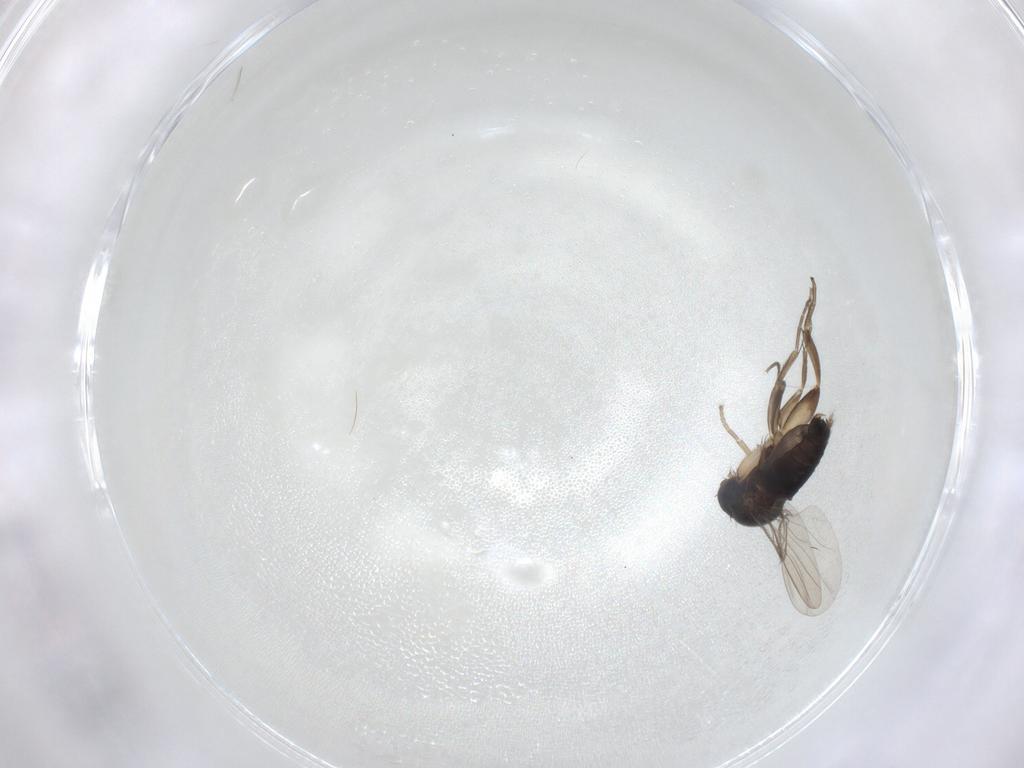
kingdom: Animalia
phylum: Arthropoda
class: Insecta
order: Diptera
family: Phoridae
